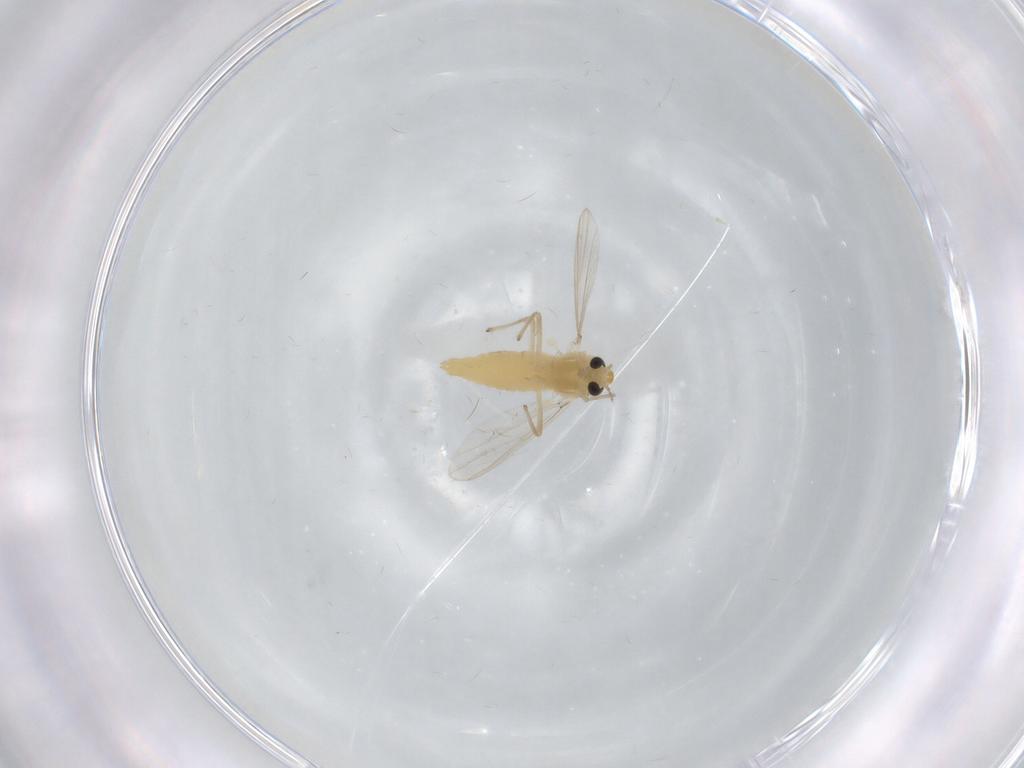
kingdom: Animalia
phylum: Arthropoda
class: Insecta
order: Diptera
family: Chironomidae
